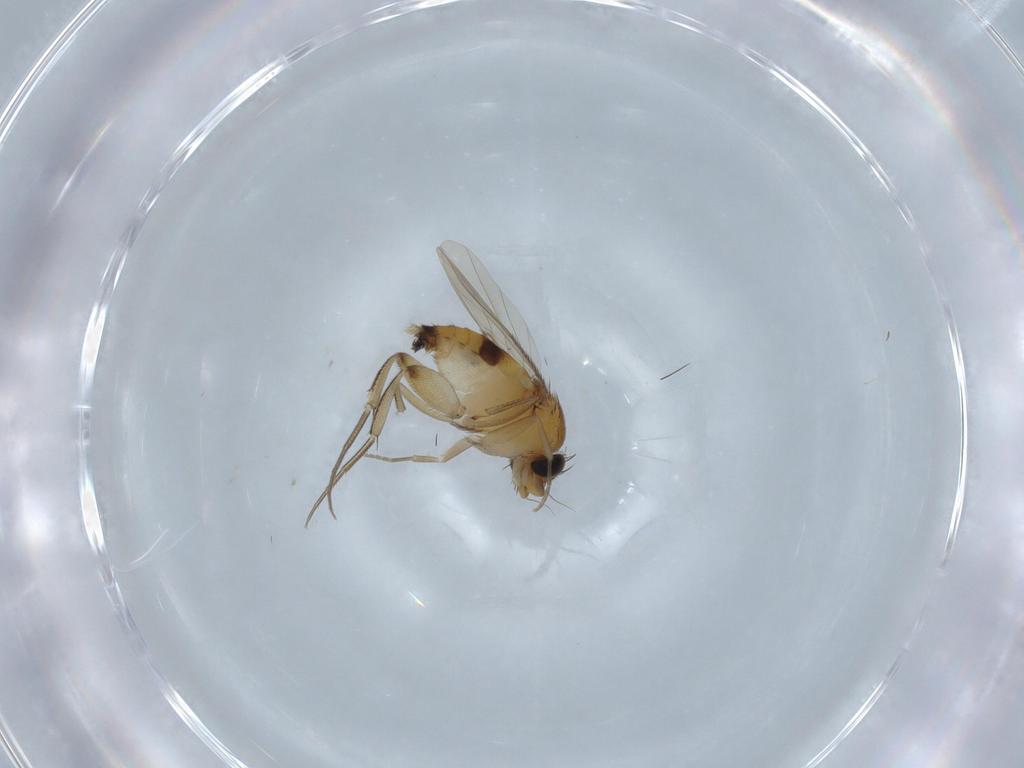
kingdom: Animalia
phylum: Arthropoda
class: Insecta
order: Diptera
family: Phoridae
